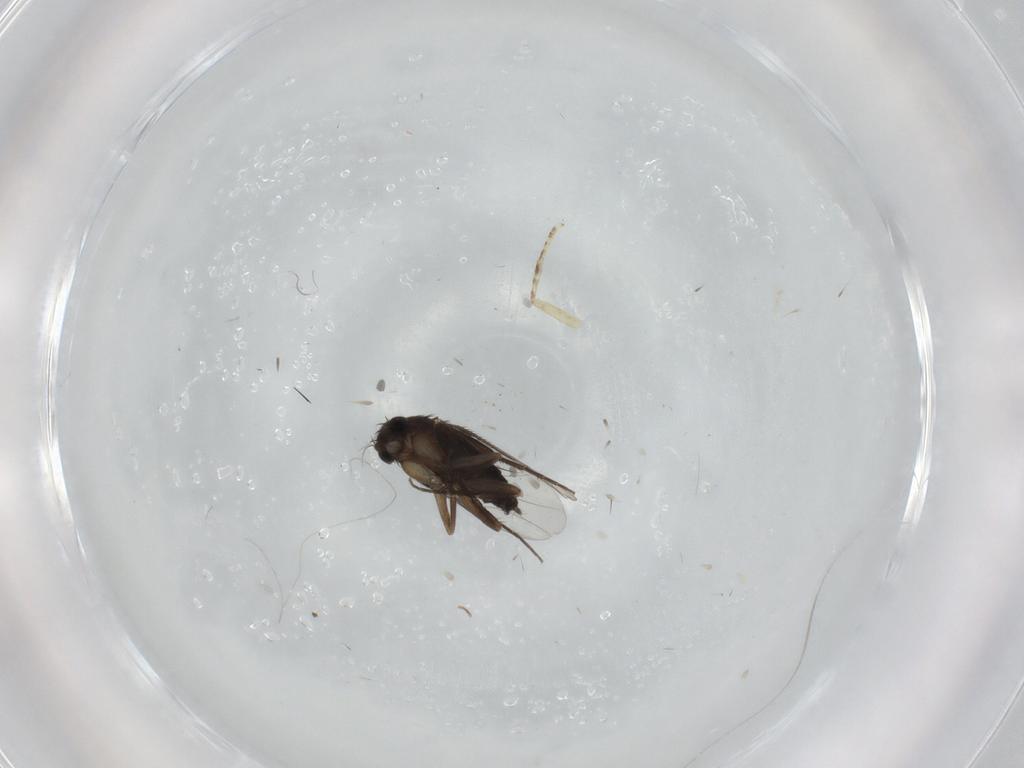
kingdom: Animalia
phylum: Arthropoda
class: Insecta
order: Diptera
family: Phoridae
